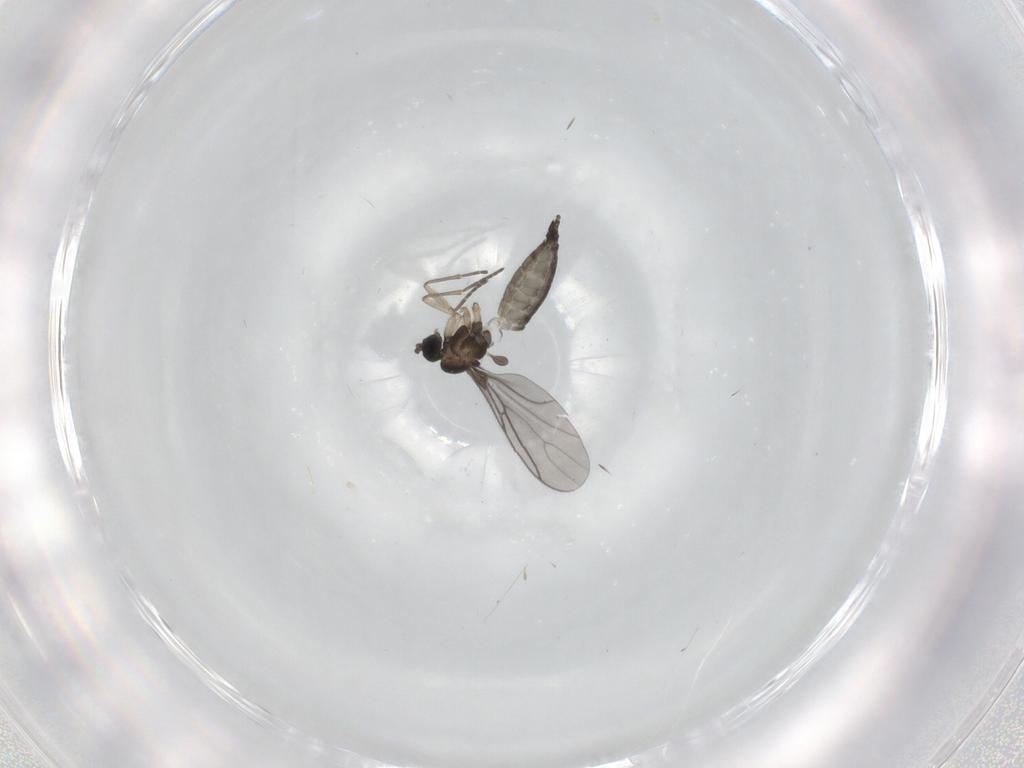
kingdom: Animalia
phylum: Arthropoda
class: Insecta
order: Diptera
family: Sciaridae
